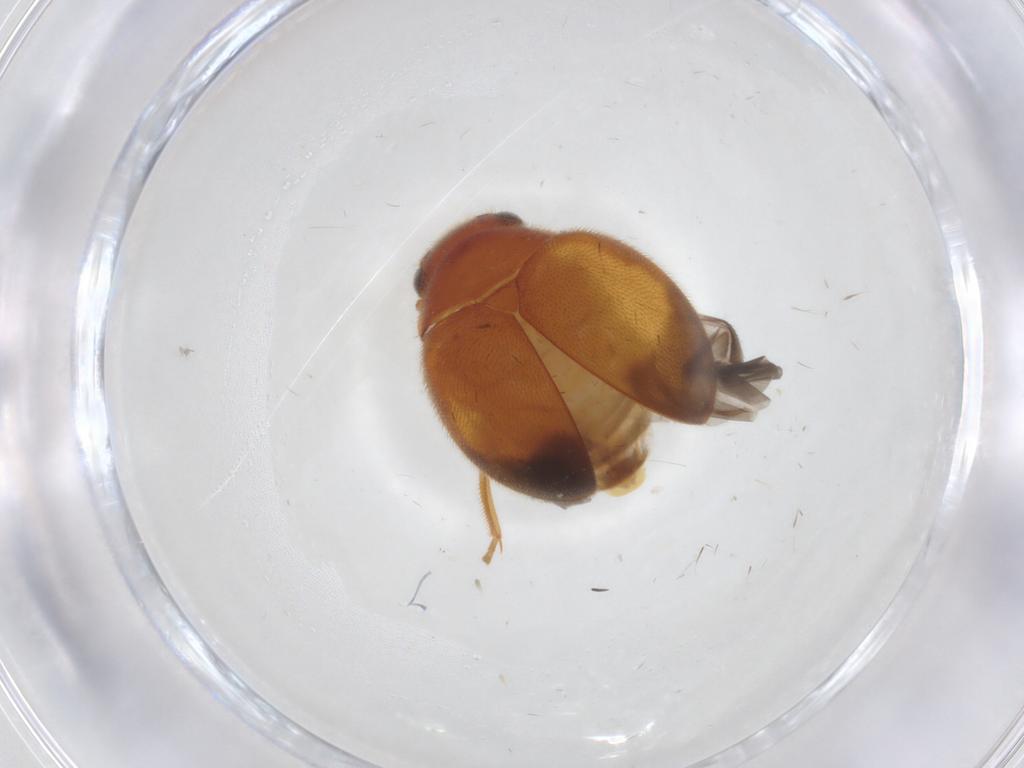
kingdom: Animalia
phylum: Arthropoda
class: Insecta
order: Coleoptera
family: Scirtidae
